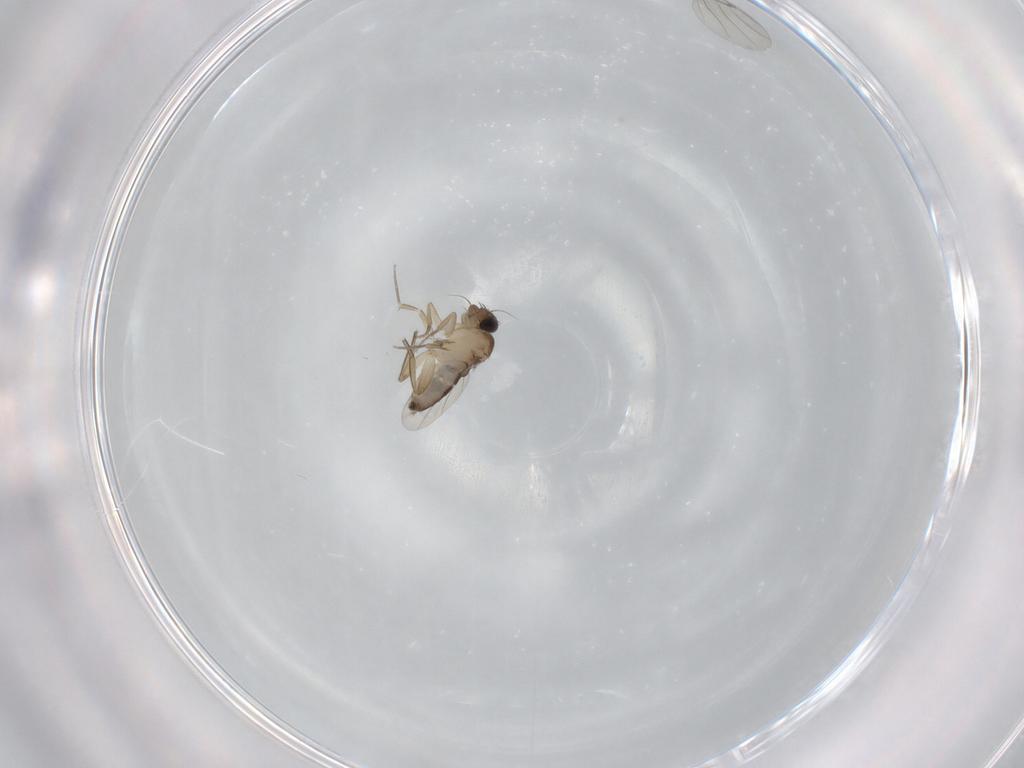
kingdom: Animalia
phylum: Arthropoda
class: Insecta
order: Diptera
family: Phoridae
